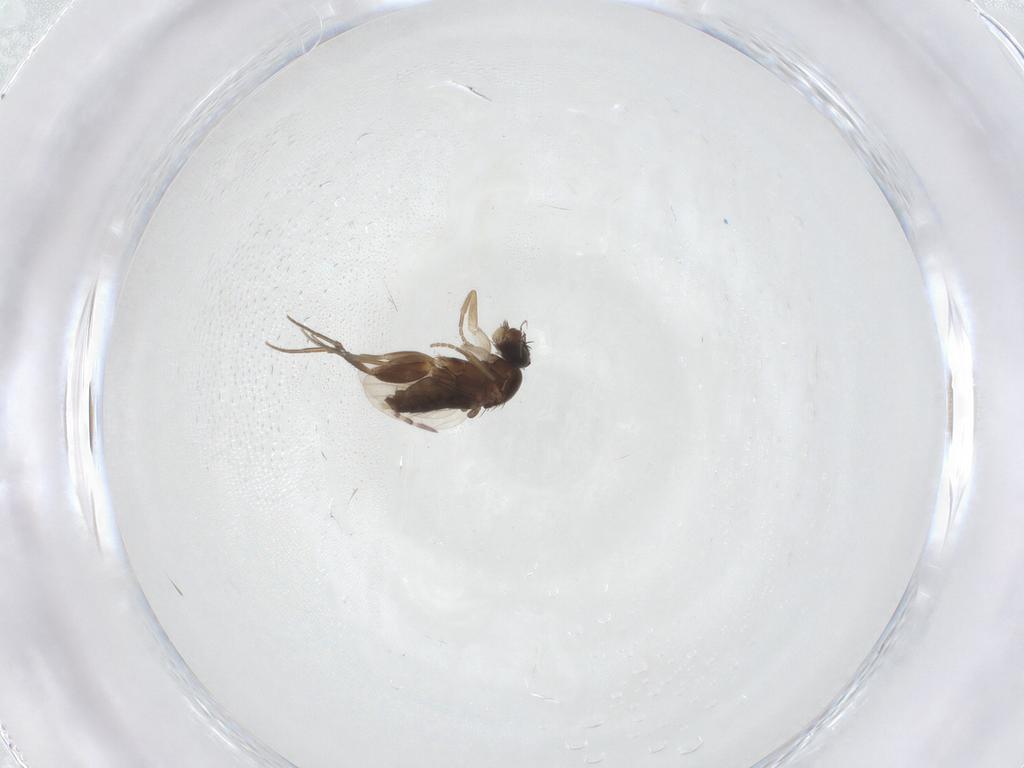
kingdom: Animalia
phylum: Arthropoda
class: Insecta
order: Diptera
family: Phoridae
